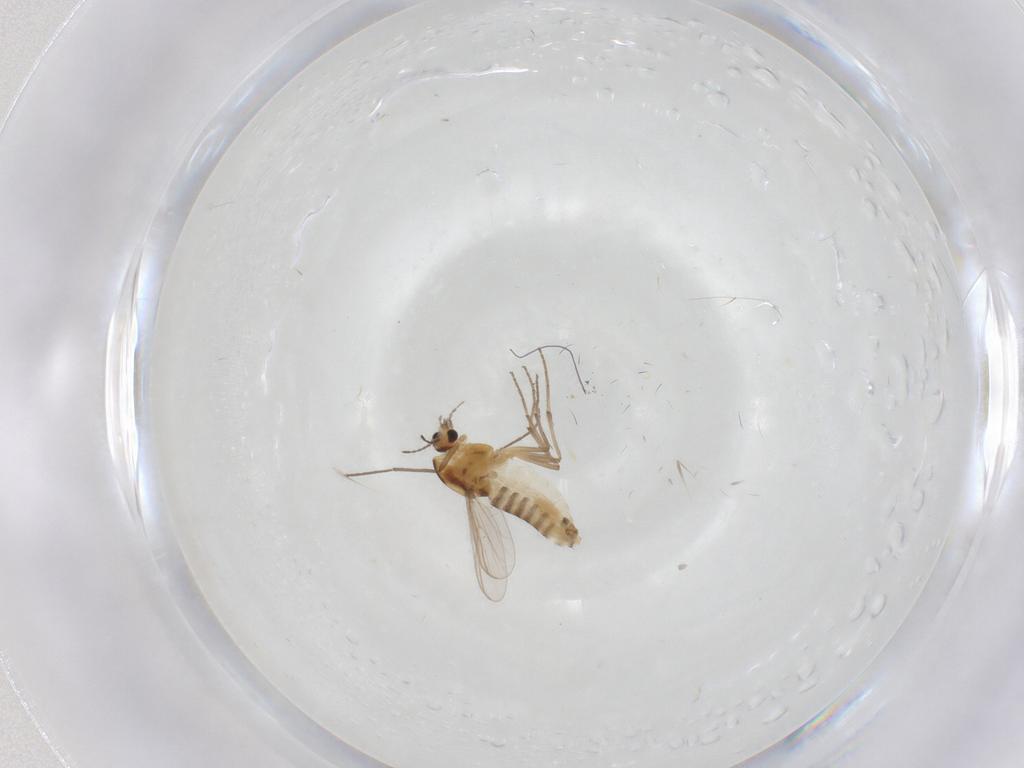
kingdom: Animalia
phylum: Arthropoda
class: Insecta
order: Diptera
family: Chironomidae
